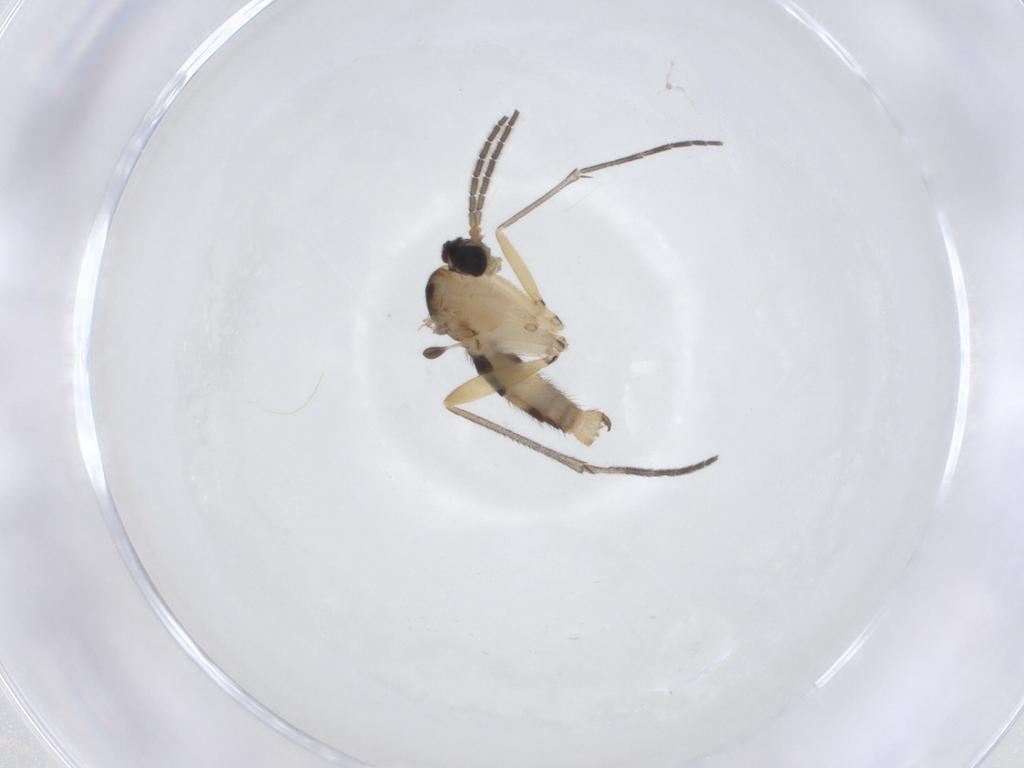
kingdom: Animalia
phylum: Arthropoda
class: Insecta
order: Diptera
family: Sciaridae
